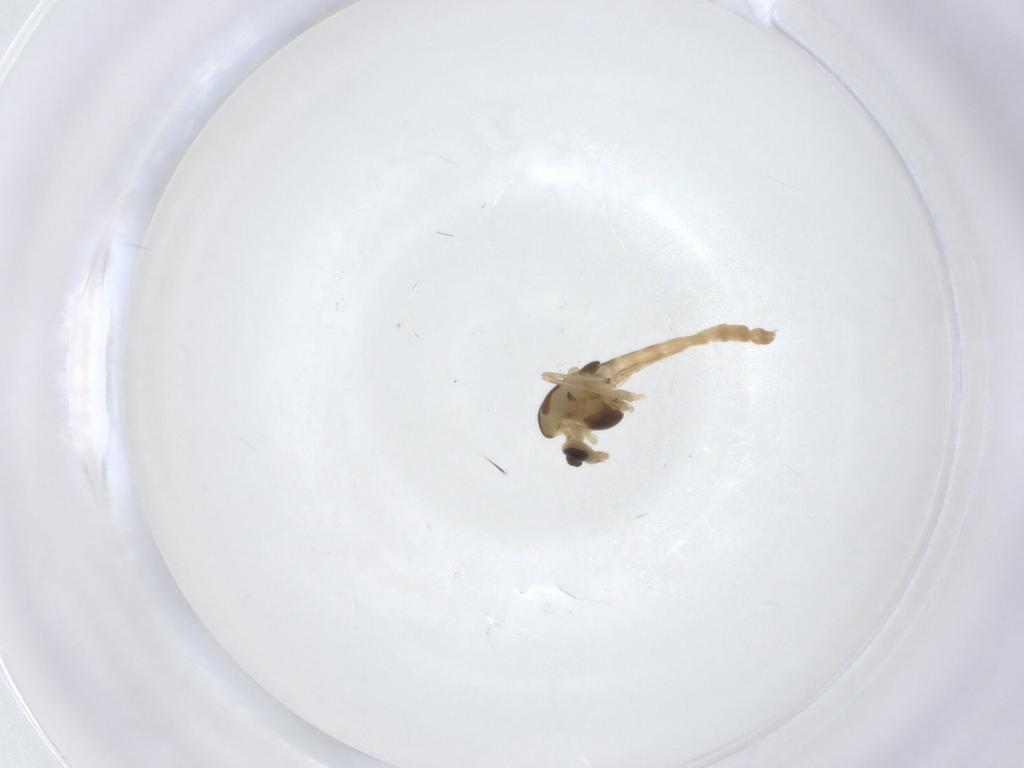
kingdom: Animalia
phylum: Arthropoda
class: Insecta
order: Diptera
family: Chironomidae
